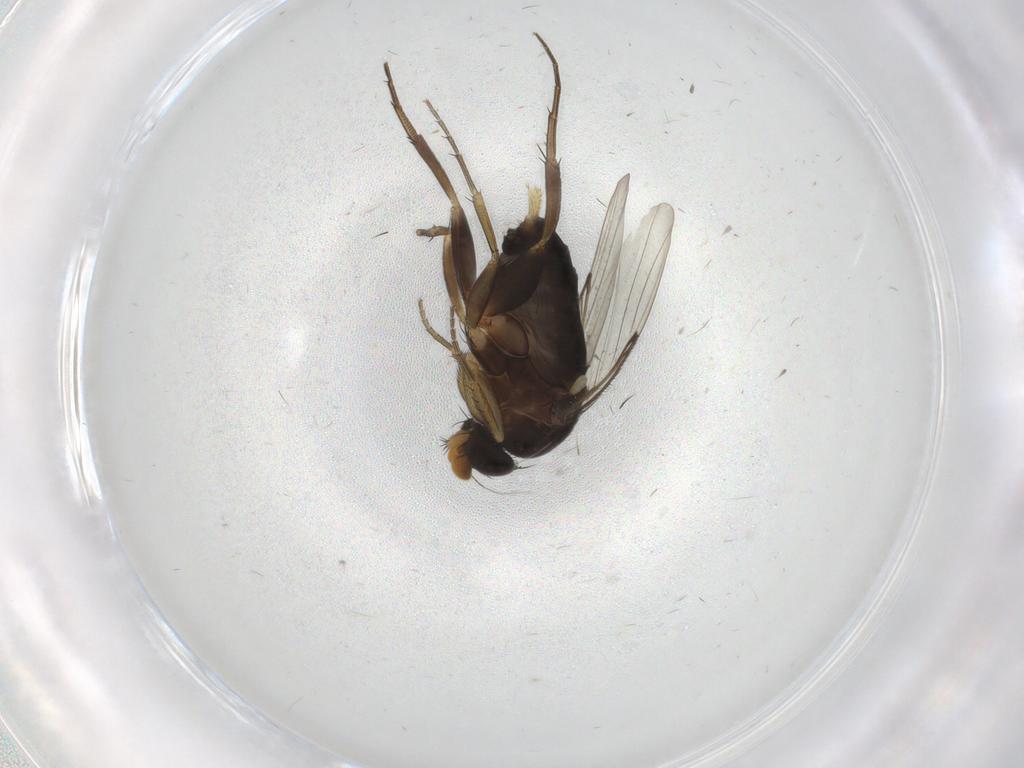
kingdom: Animalia
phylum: Arthropoda
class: Insecta
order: Diptera
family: Phoridae
